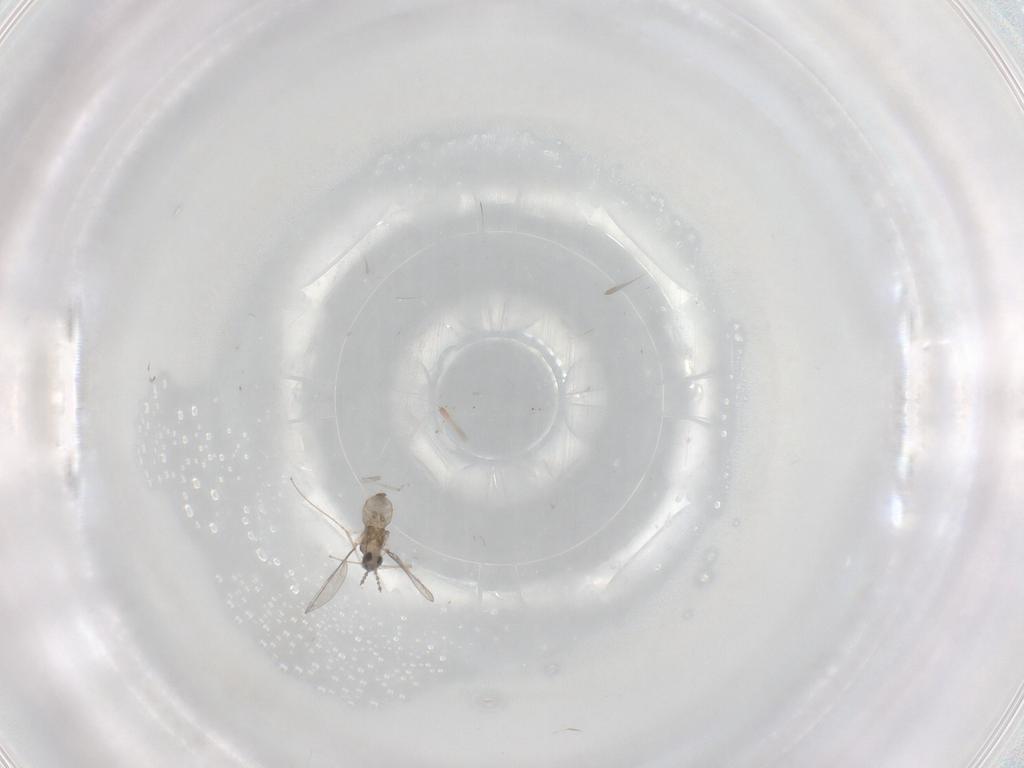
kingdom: Animalia
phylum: Arthropoda
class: Insecta
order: Diptera
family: Cecidomyiidae
